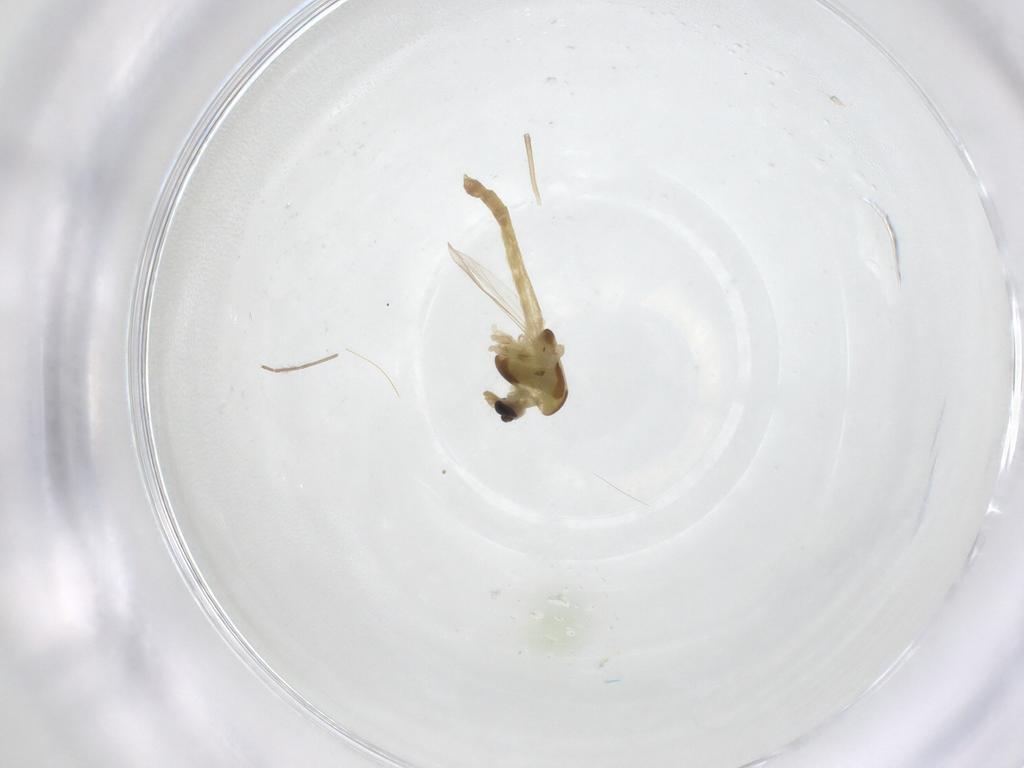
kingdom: Animalia
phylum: Arthropoda
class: Insecta
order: Diptera
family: Chironomidae
